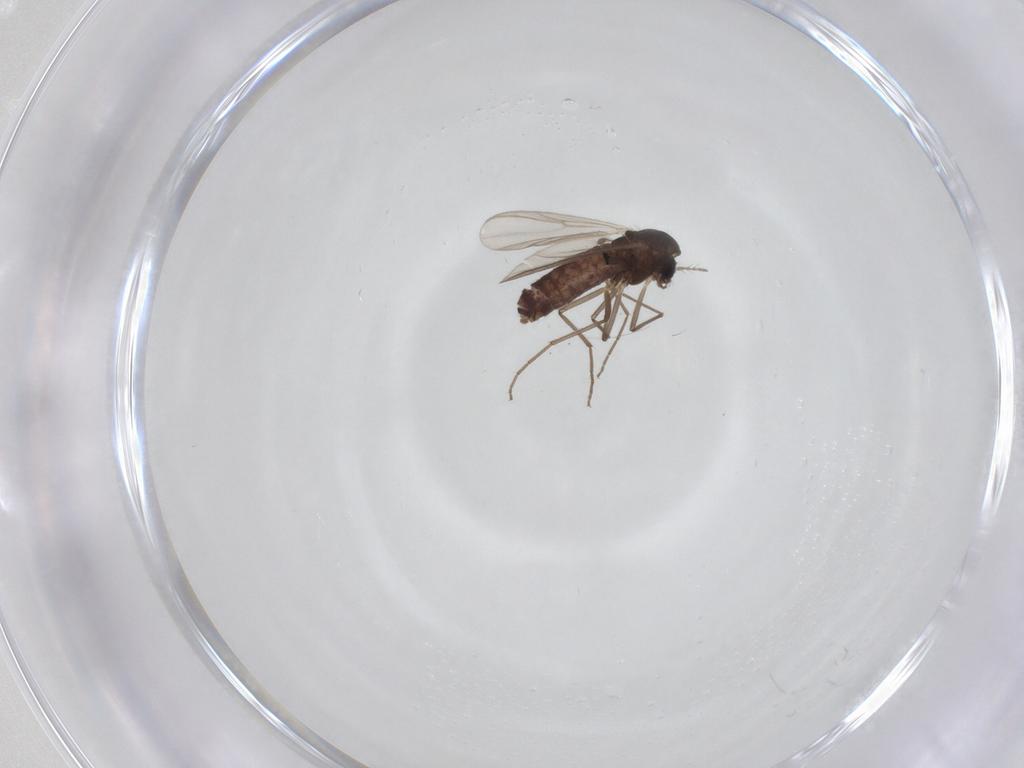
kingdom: Animalia
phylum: Arthropoda
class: Insecta
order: Diptera
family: Chironomidae
